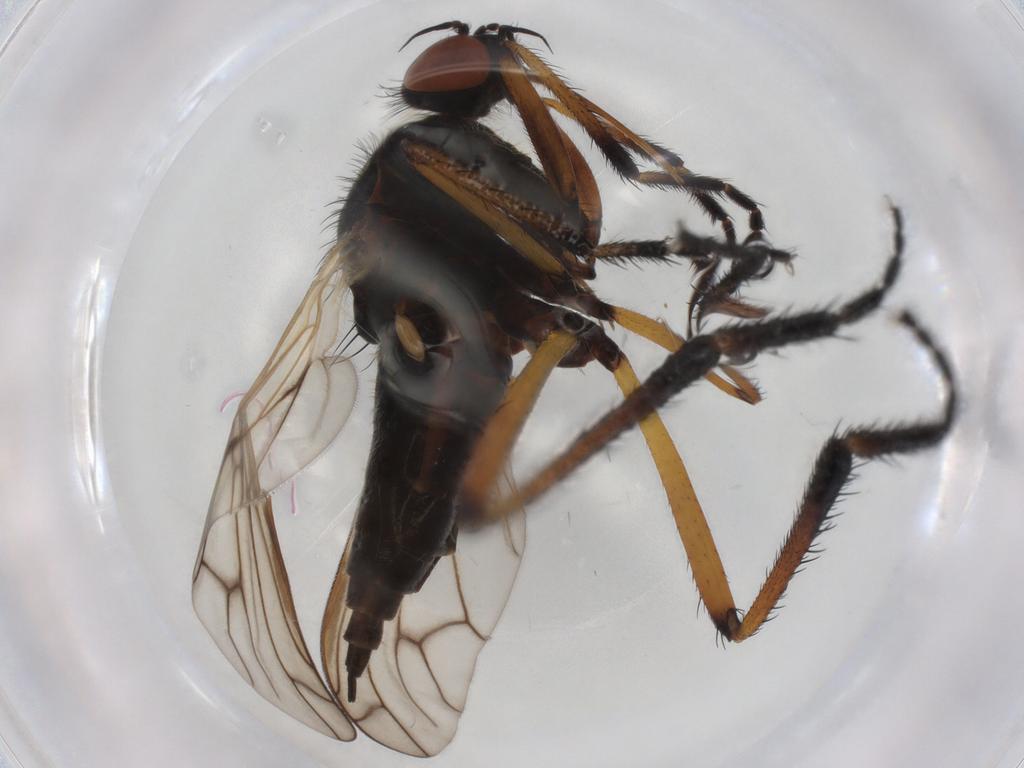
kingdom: Animalia
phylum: Arthropoda
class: Insecta
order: Diptera
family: Empididae
